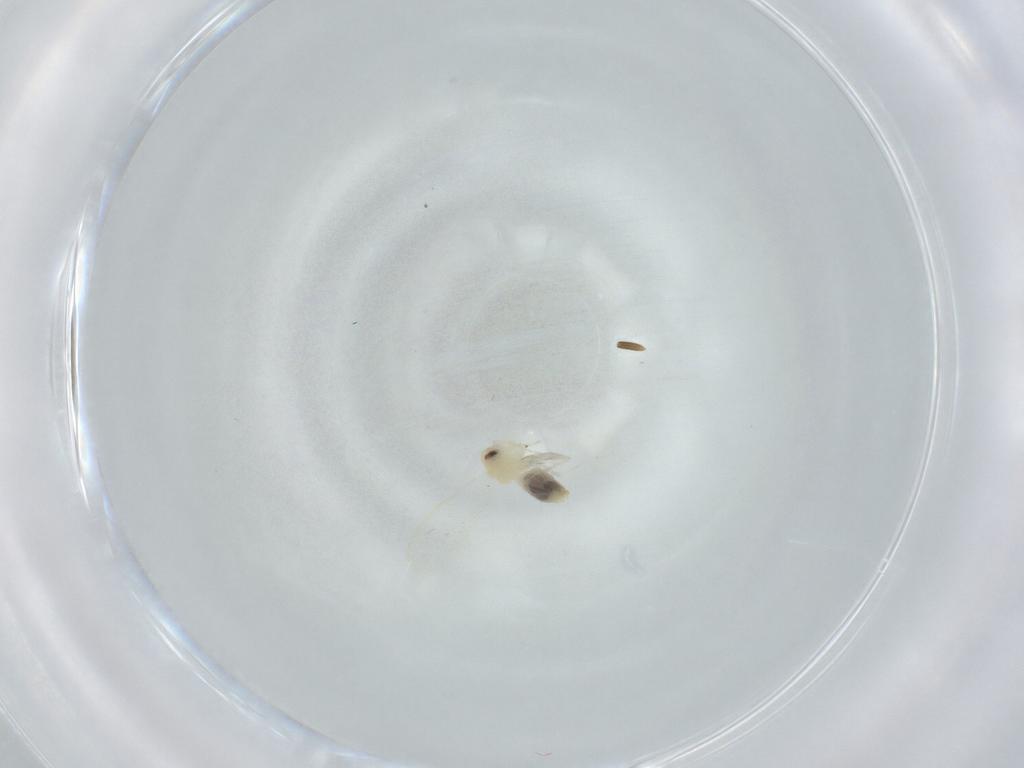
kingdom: Animalia
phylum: Arthropoda
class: Insecta
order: Hemiptera
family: Aleyrodidae
